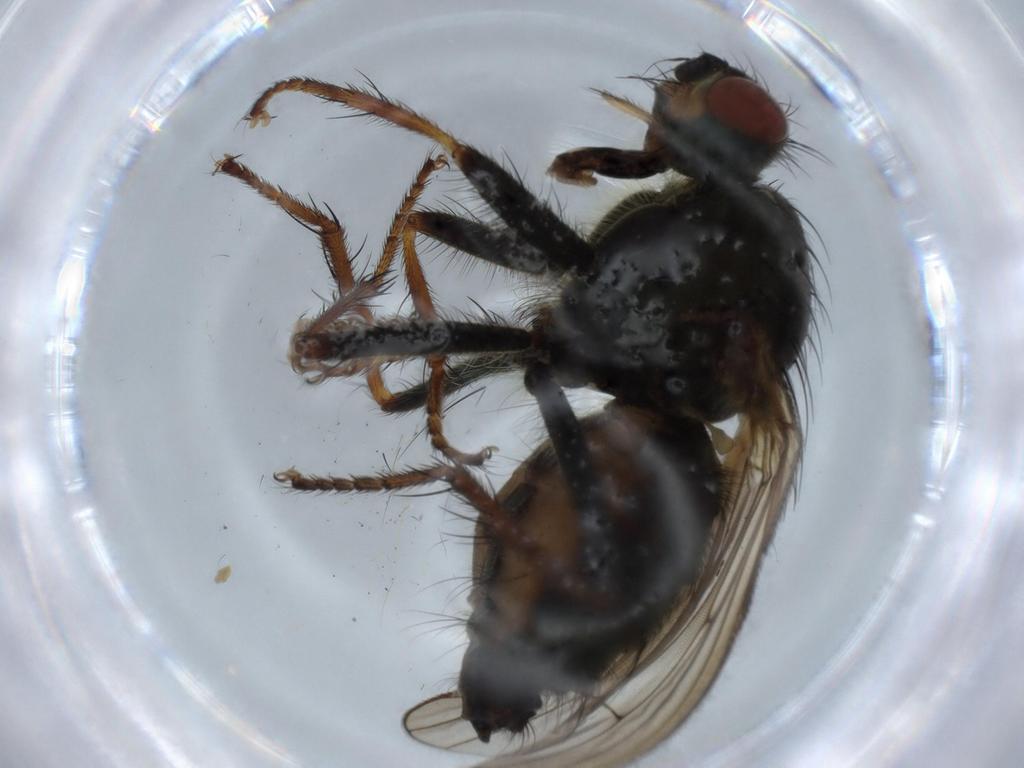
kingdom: Animalia
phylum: Arthropoda
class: Insecta
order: Diptera
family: Scathophagidae
